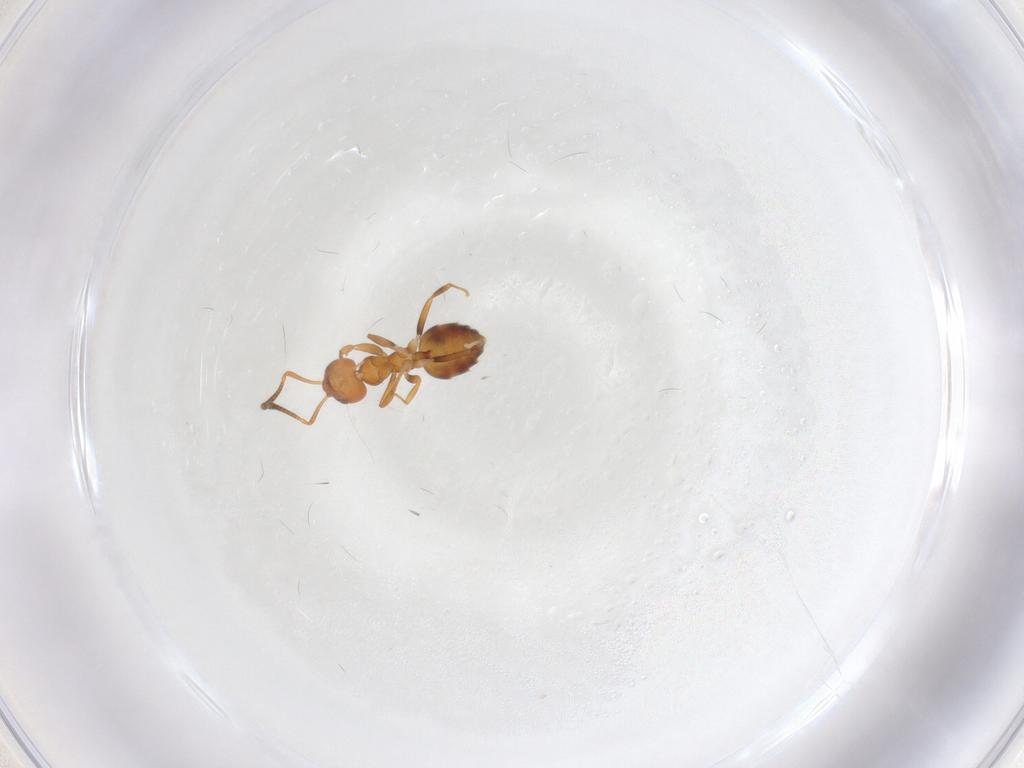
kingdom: Animalia
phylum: Arthropoda
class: Insecta
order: Hymenoptera
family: Formicidae
